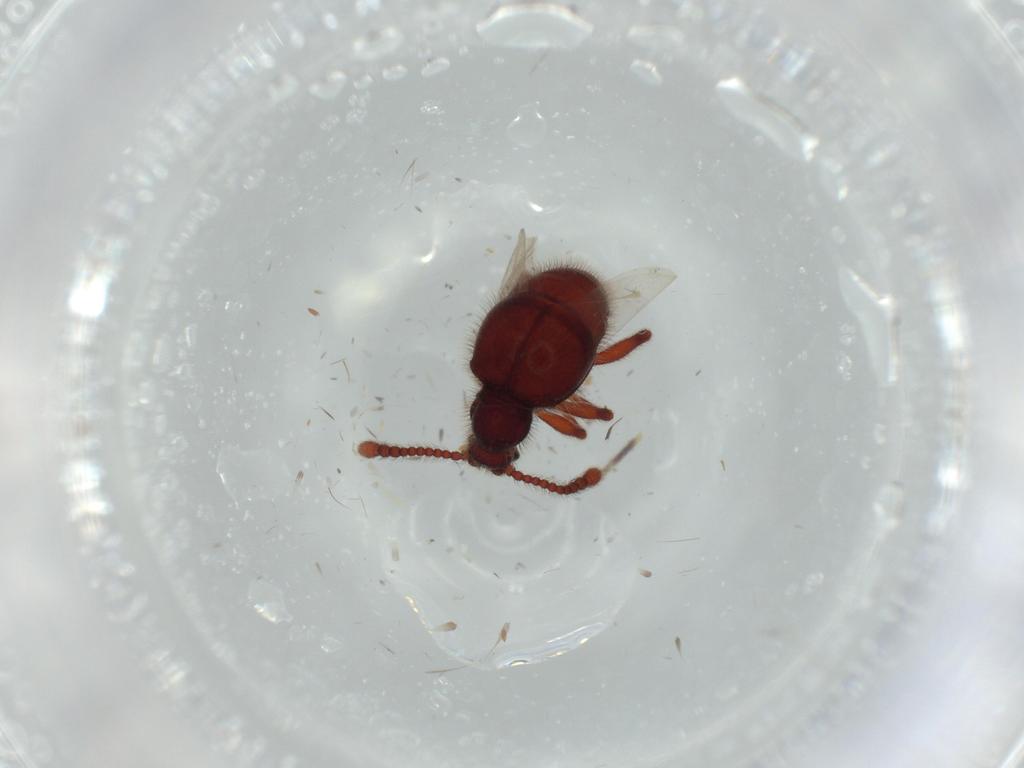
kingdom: Animalia
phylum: Arthropoda
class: Insecta
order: Coleoptera
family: Staphylinidae
